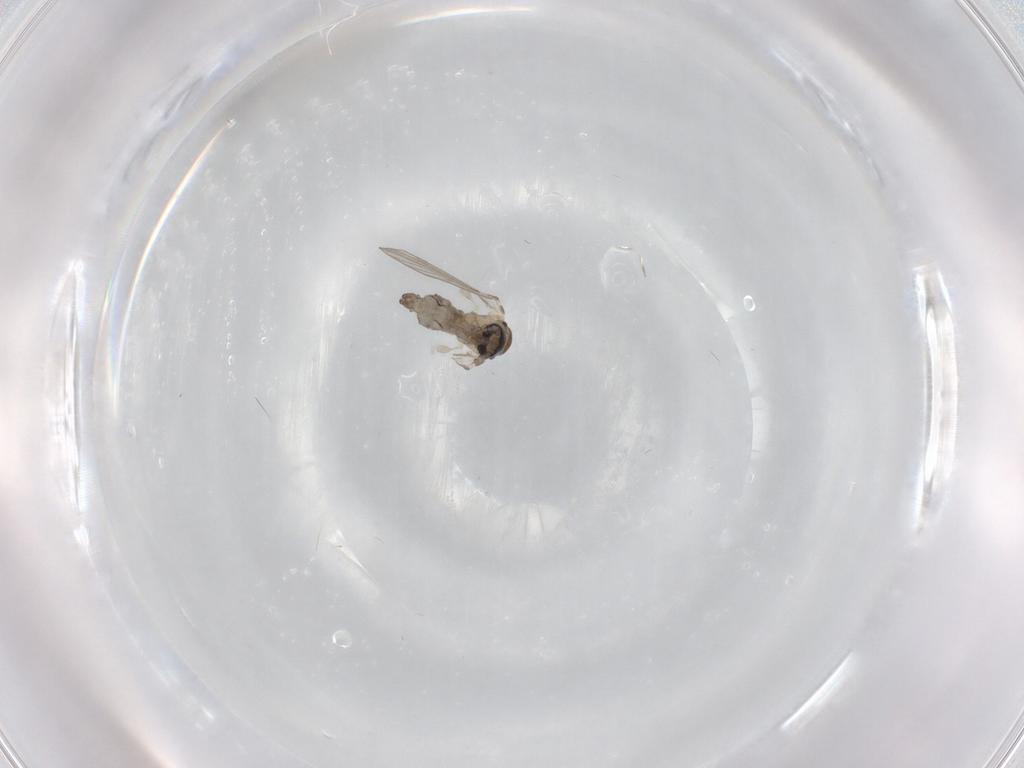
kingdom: Animalia
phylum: Arthropoda
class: Insecta
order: Diptera
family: Psychodidae
